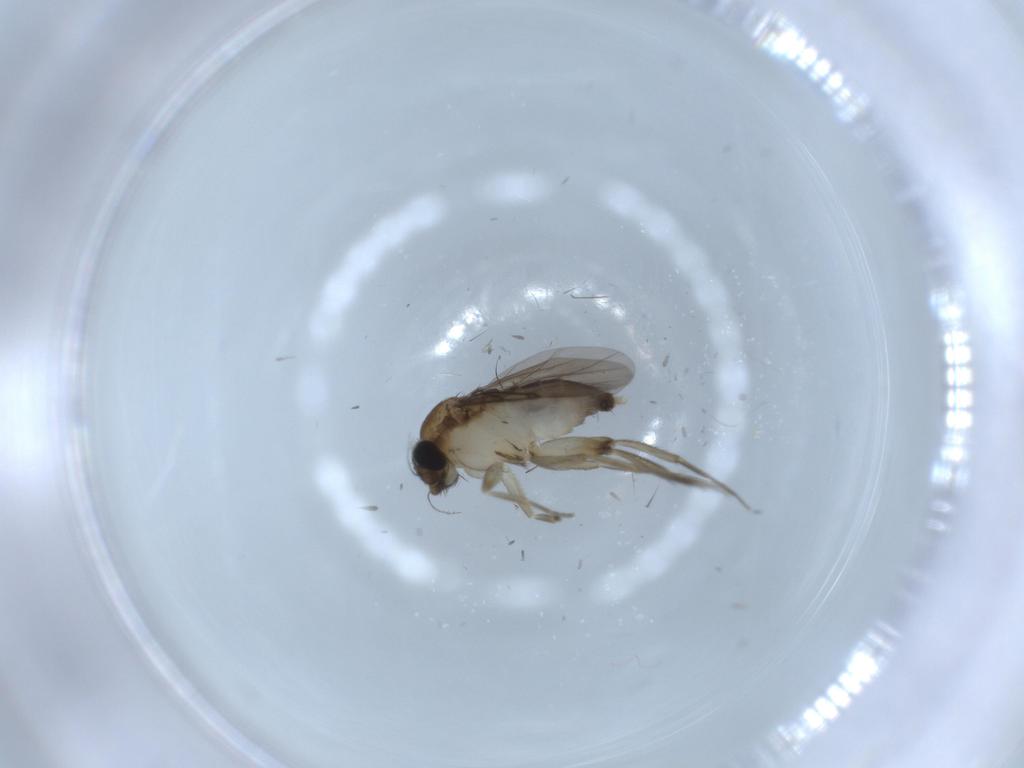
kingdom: Animalia
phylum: Arthropoda
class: Insecta
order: Diptera
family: Phoridae
